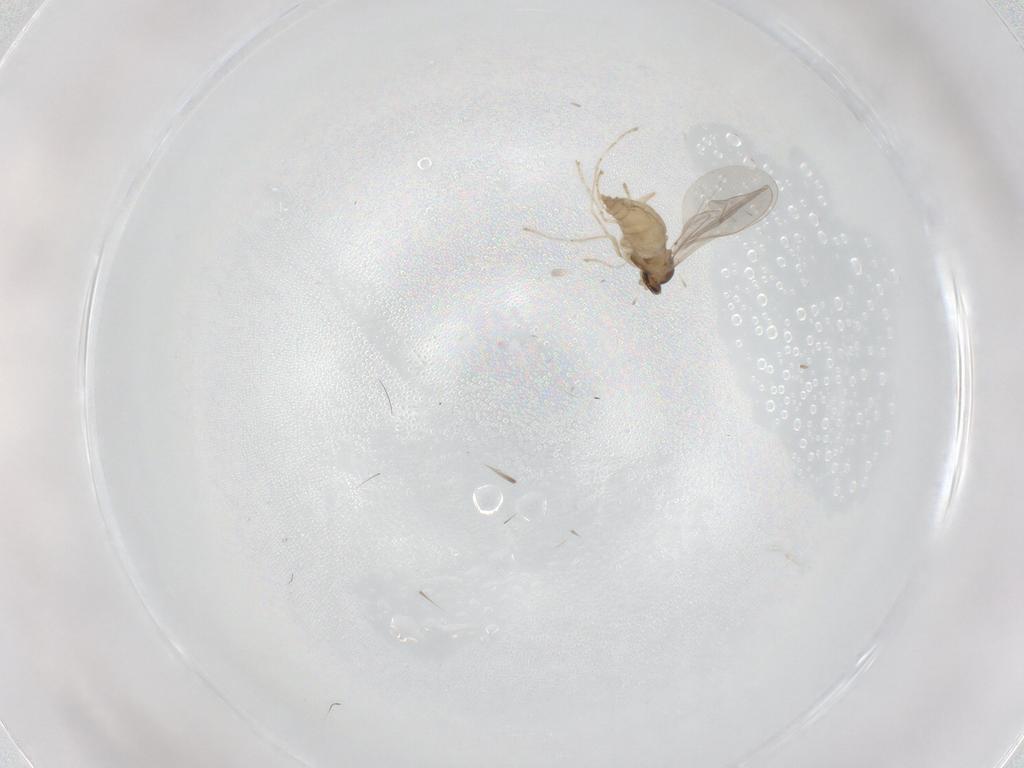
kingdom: Animalia
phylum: Arthropoda
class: Insecta
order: Diptera
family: Cecidomyiidae
